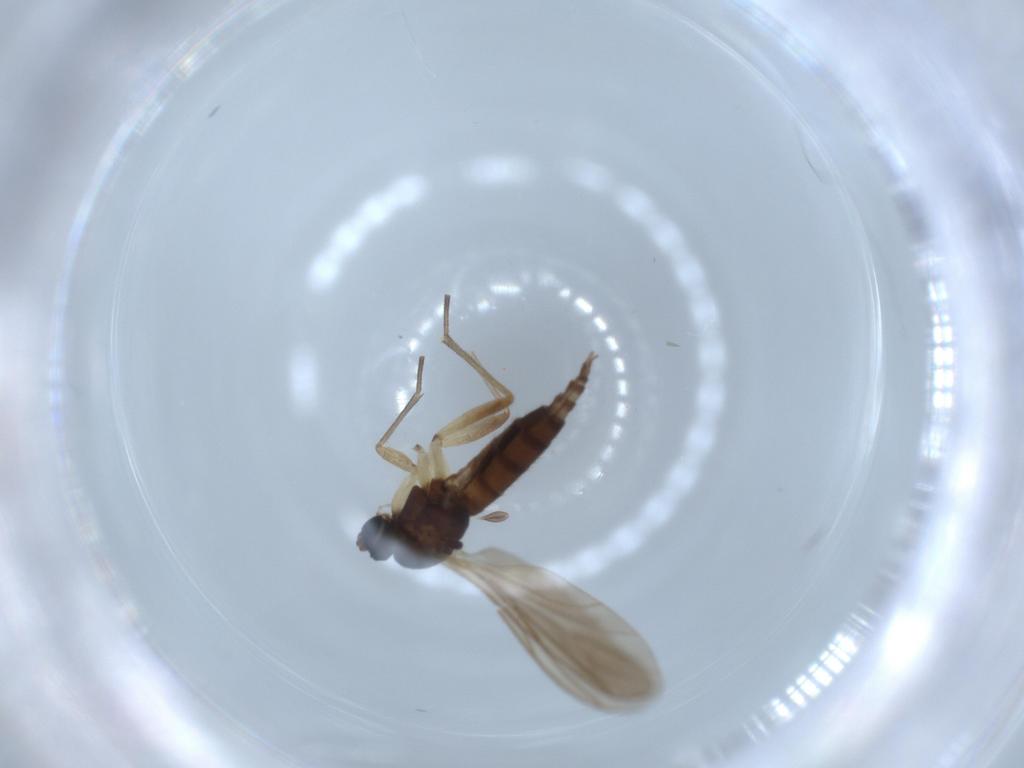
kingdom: Animalia
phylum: Arthropoda
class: Insecta
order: Diptera
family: Sciaridae
